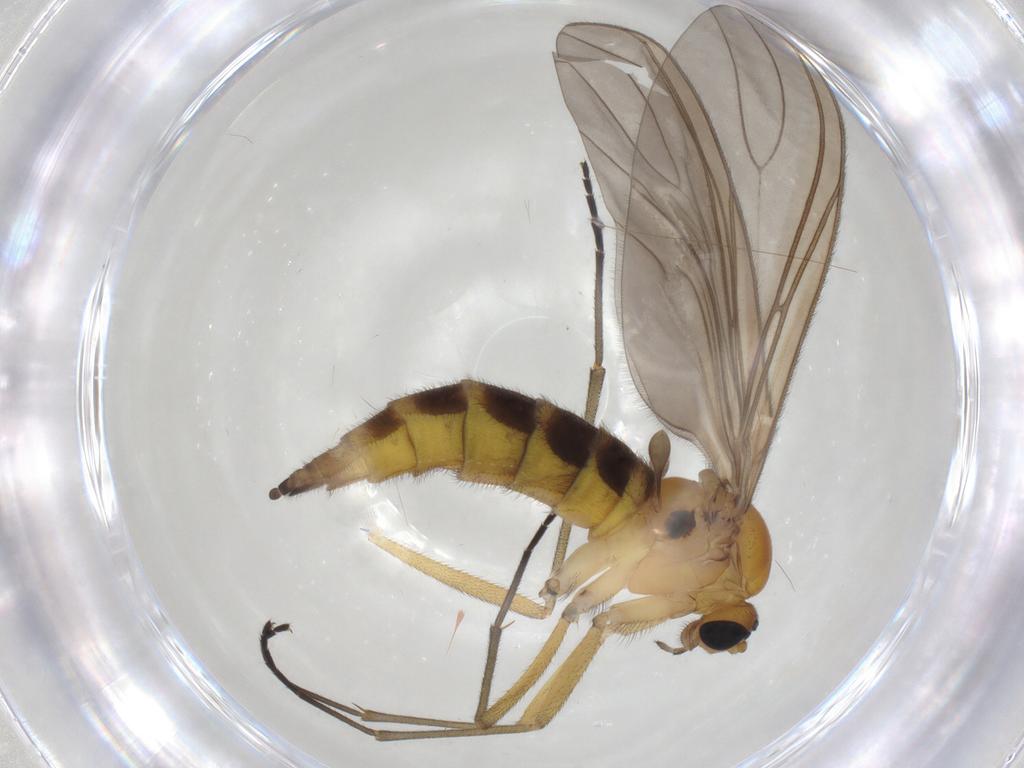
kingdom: Animalia
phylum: Arthropoda
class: Insecta
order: Diptera
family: Sciaridae
